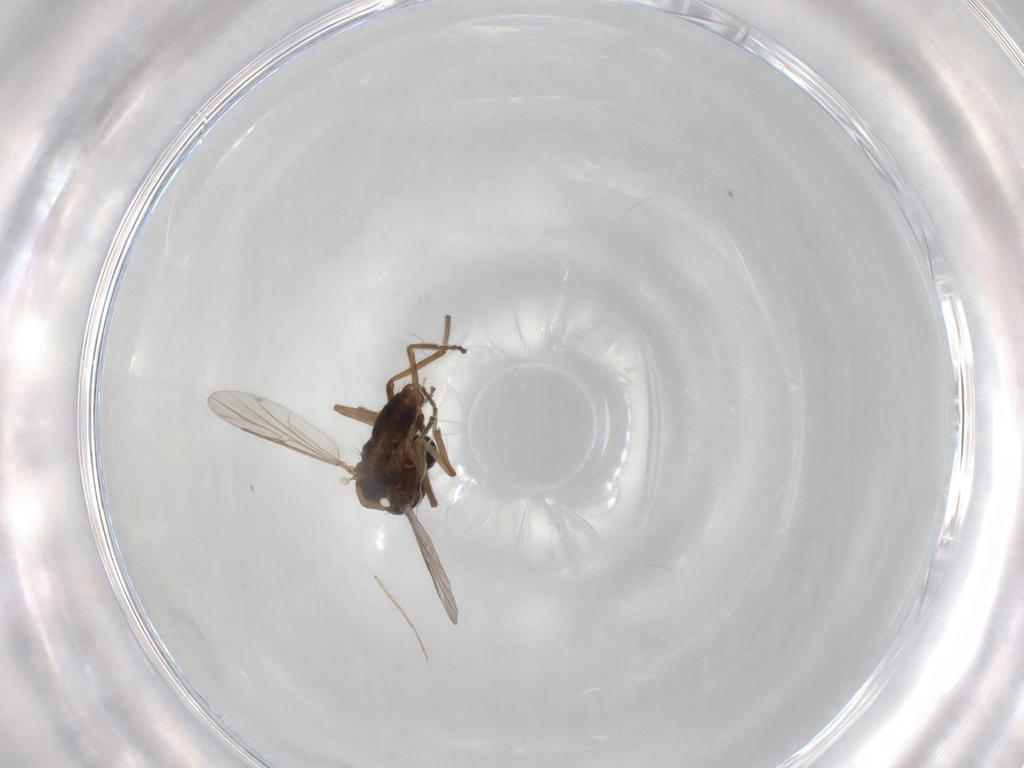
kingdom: Animalia
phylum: Arthropoda
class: Insecta
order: Diptera
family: Ceratopogonidae
